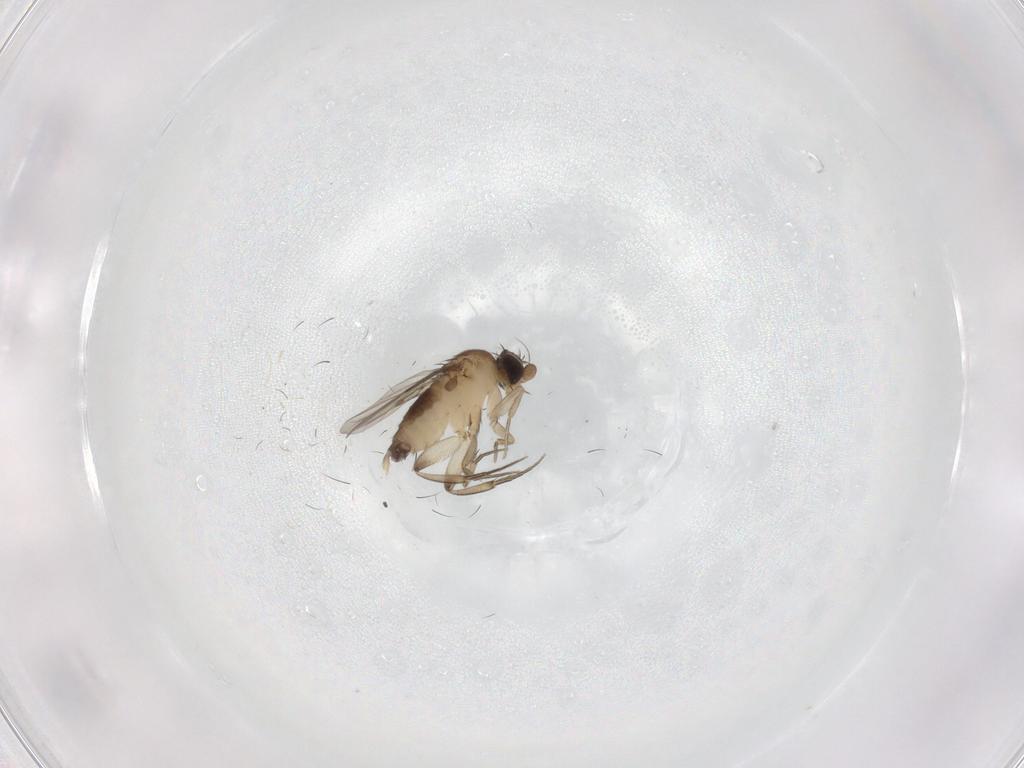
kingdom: Animalia
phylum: Arthropoda
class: Insecta
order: Diptera
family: Phoridae
